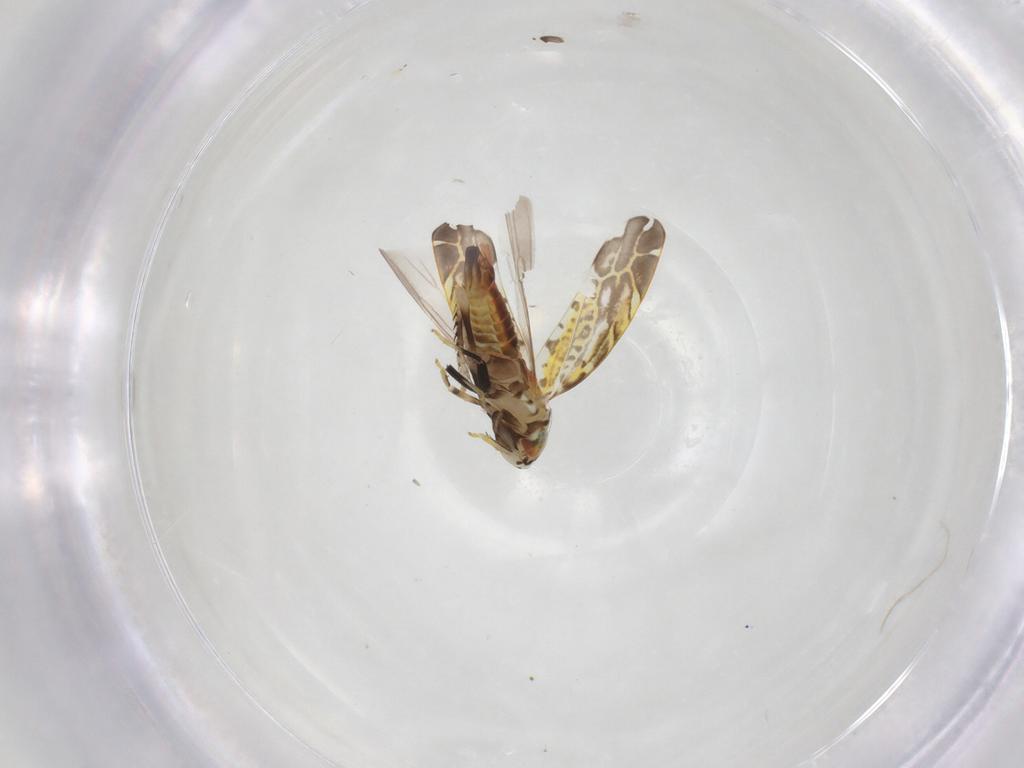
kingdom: Animalia
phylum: Arthropoda
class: Insecta
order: Hemiptera
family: Cicadellidae
